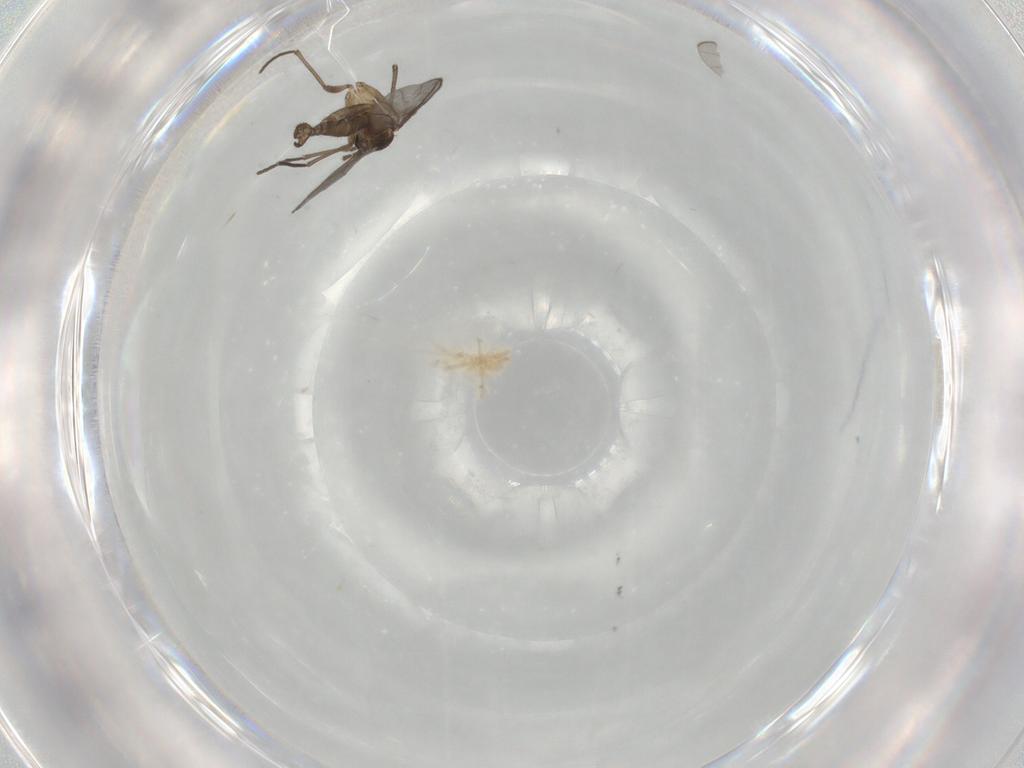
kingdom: Animalia
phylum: Arthropoda
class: Insecta
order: Diptera
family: Sciaridae
